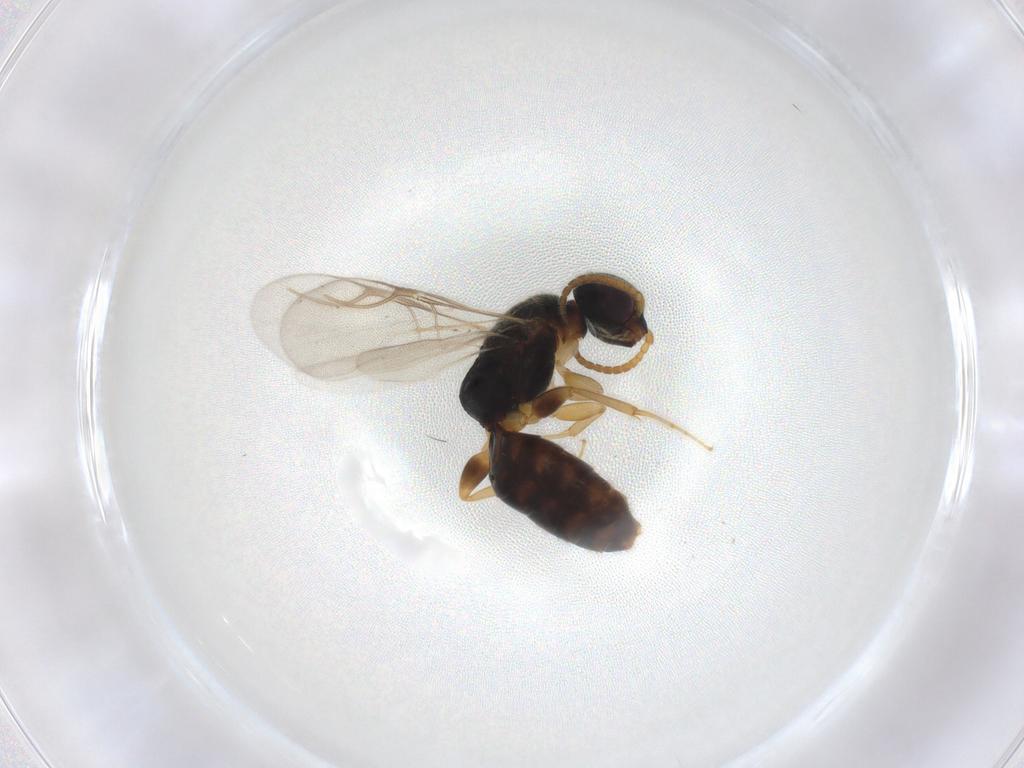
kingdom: Animalia
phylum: Arthropoda
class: Insecta
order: Hymenoptera
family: Bethylidae
